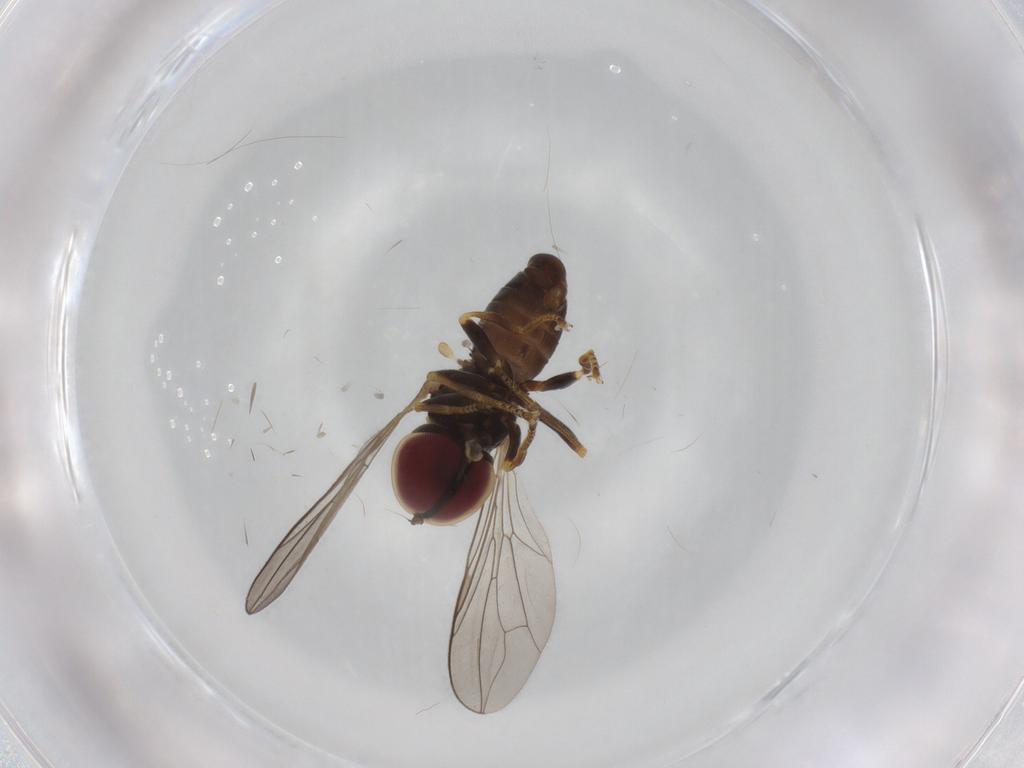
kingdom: Animalia
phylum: Arthropoda
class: Insecta
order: Diptera
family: Pipunculidae
